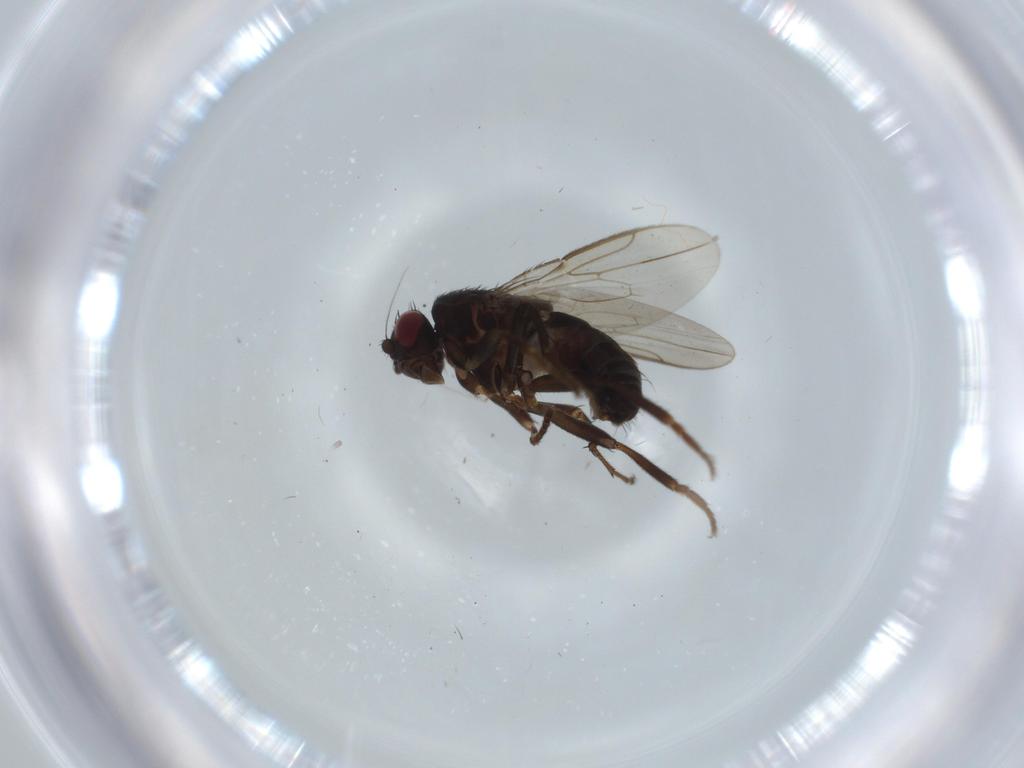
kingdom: Animalia
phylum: Arthropoda
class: Insecta
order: Diptera
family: Sphaeroceridae
